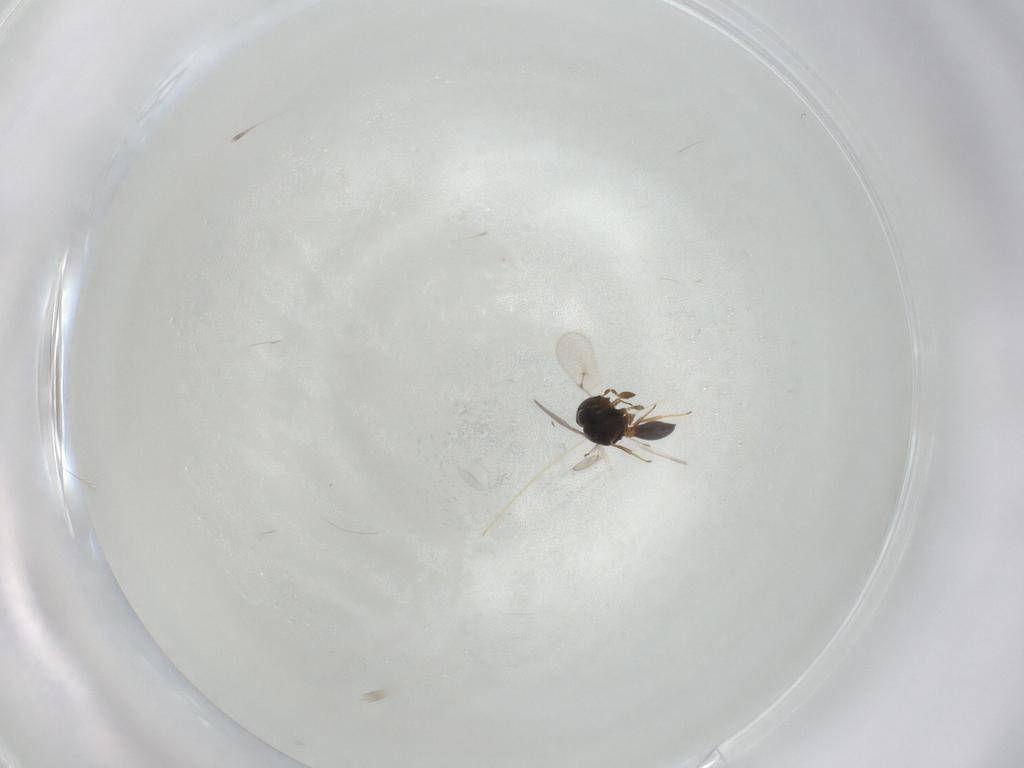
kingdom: Animalia
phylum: Arthropoda
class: Insecta
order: Hymenoptera
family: Scelionidae
